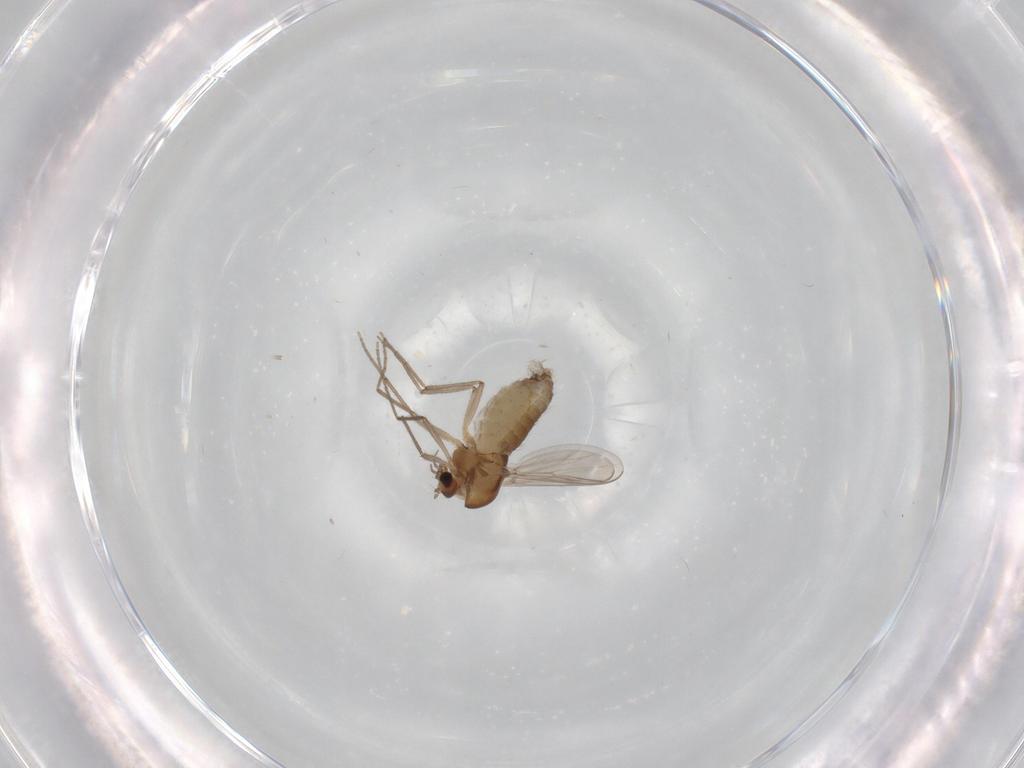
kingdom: Animalia
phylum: Arthropoda
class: Insecta
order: Diptera
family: Chironomidae
